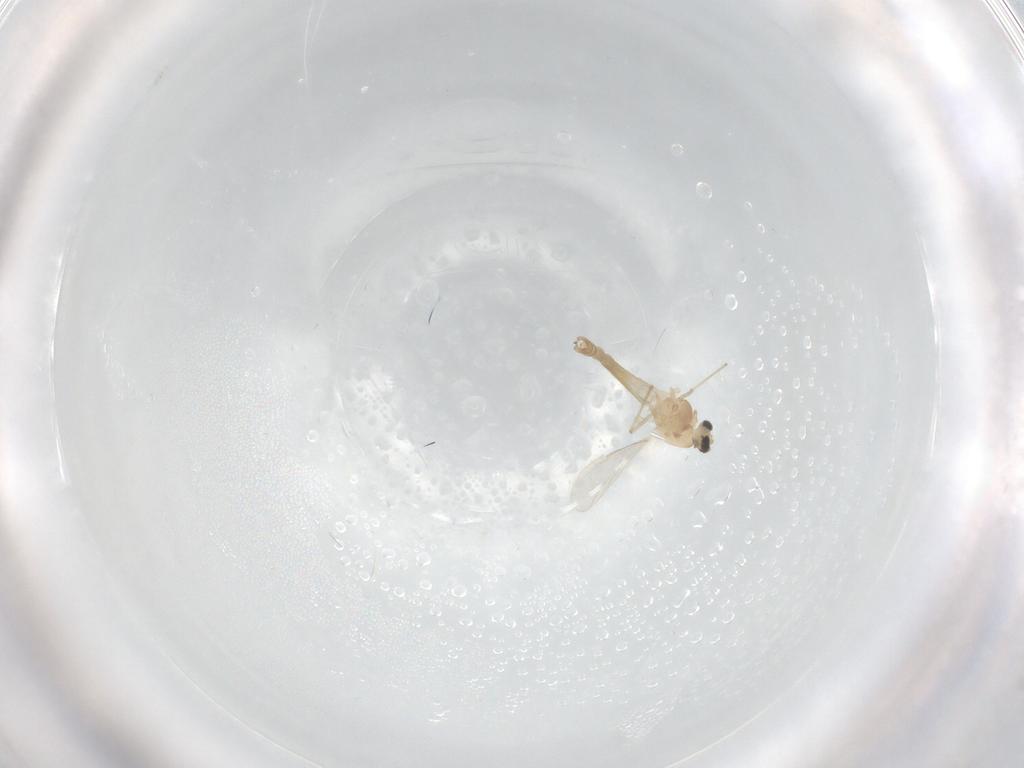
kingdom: Animalia
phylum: Arthropoda
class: Insecta
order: Diptera
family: Chironomidae
